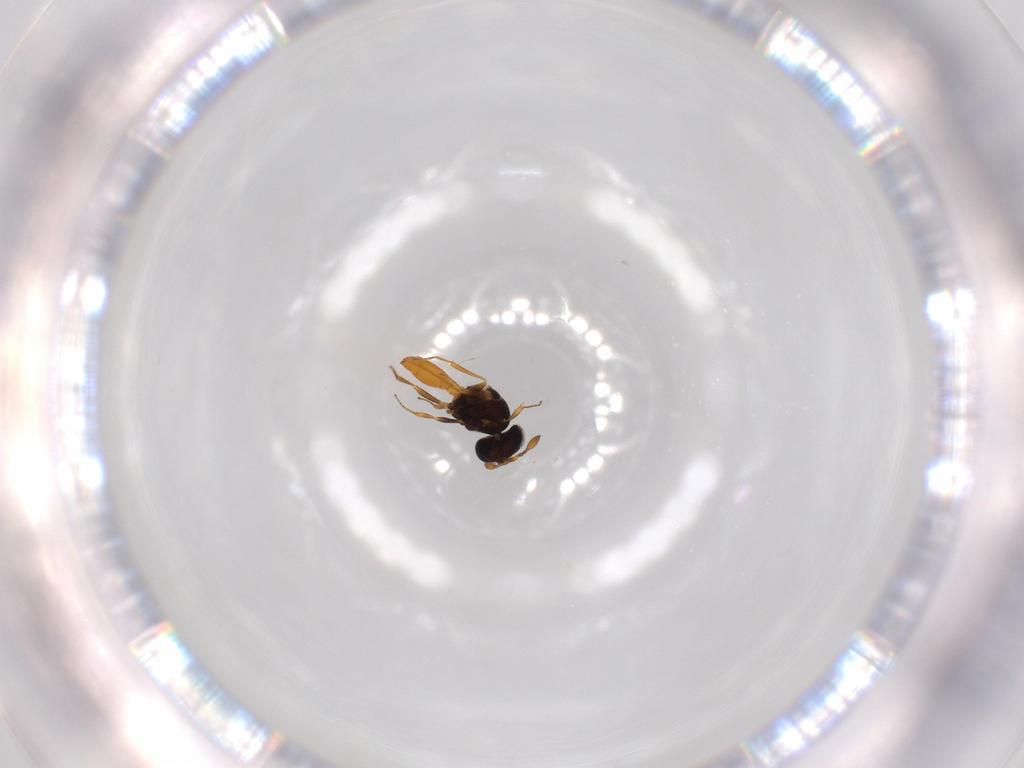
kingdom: Animalia
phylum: Arthropoda
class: Insecta
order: Hymenoptera
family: Scelionidae
